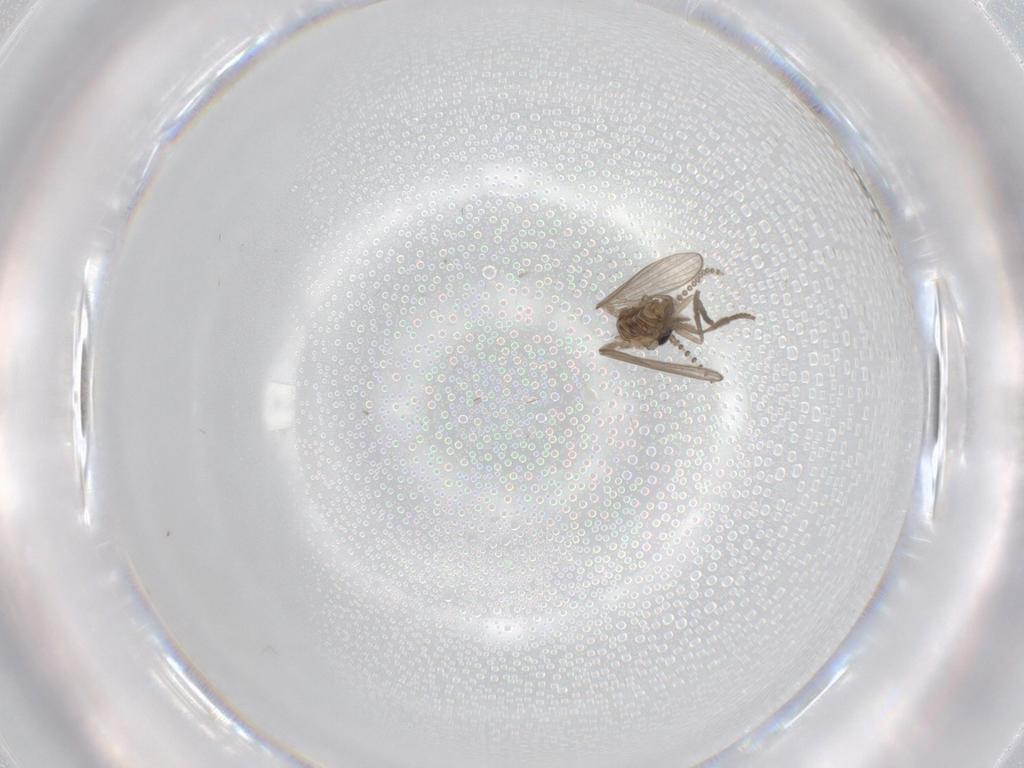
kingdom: Animalia
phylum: Arthropoda
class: Insecta
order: Diptera
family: Psychodidae
